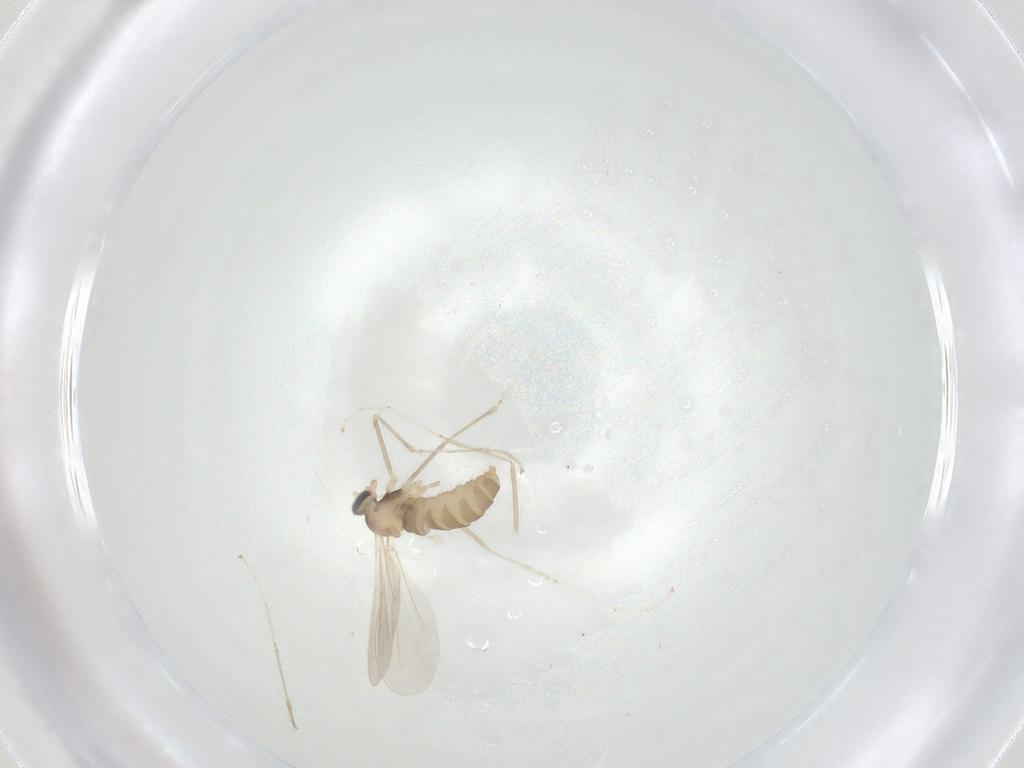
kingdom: Animalia
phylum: Arthropoda
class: Insecta
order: Diptera
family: Cecidomyiidae
